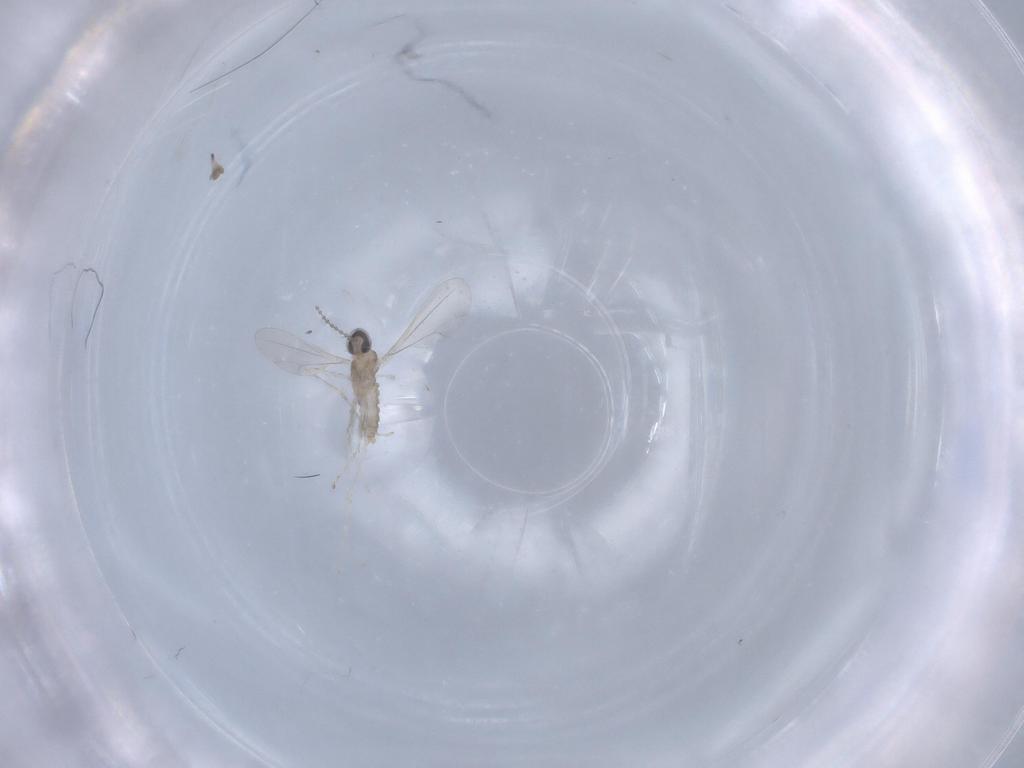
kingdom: Animalia
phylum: Arthropoda
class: Insecta
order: Diptera
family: Cecidomyiidae
